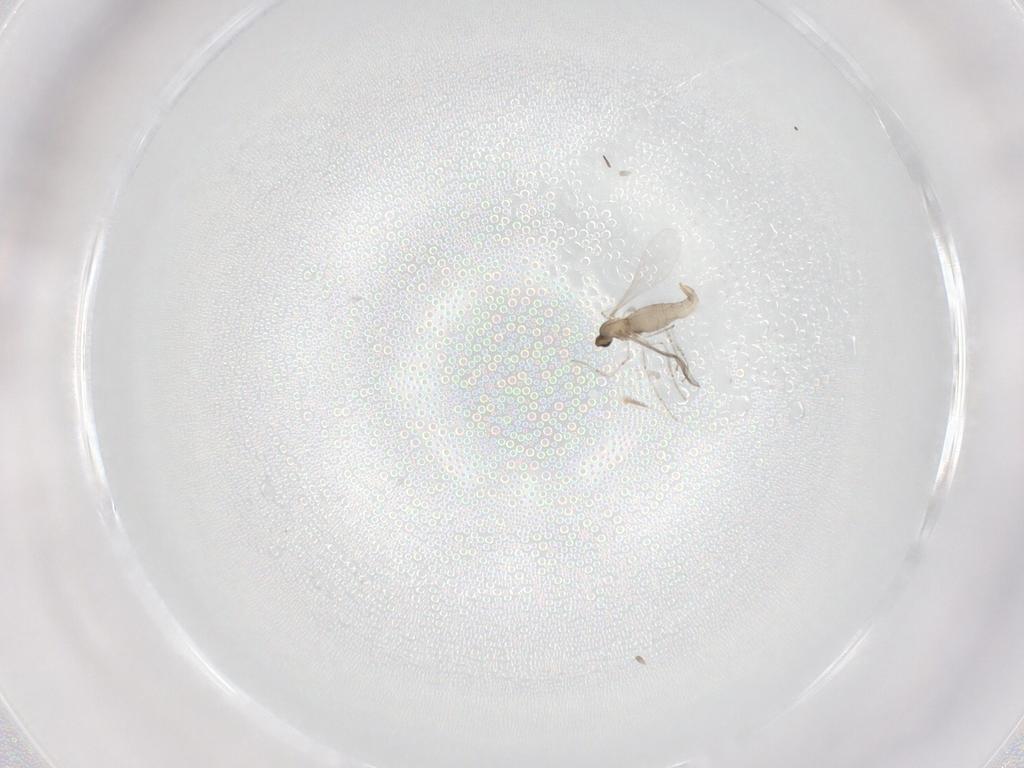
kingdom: Animalia
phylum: Arthropoda
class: Insecta
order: Diptera
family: Cecidomyiidae
